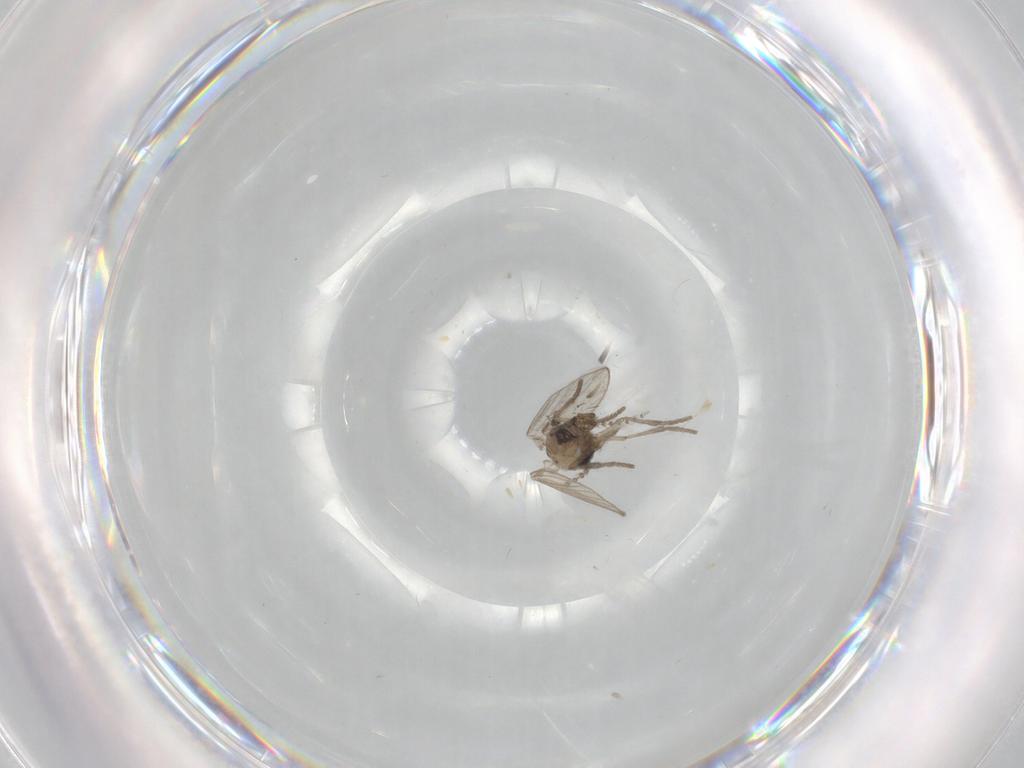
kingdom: Animalia
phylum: Arthropoda
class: Insecta
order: Diptera
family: Psychodidae
